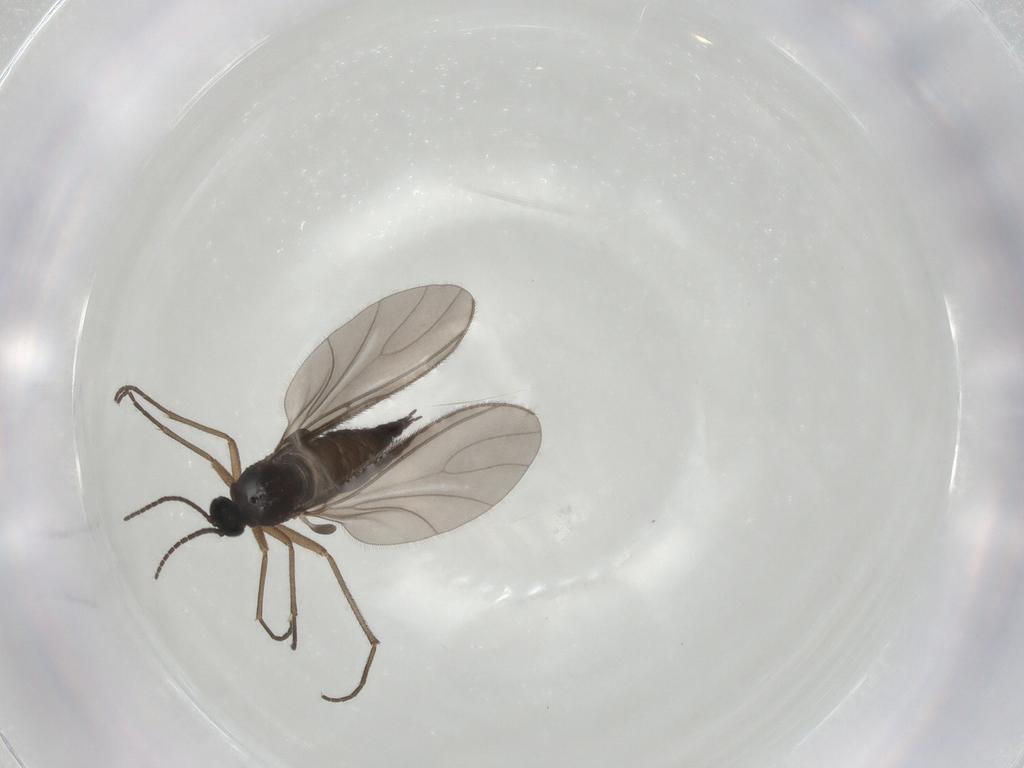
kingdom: Animalia
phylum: Arthropoda
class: Insecta
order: Diptera
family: Sciaridae
